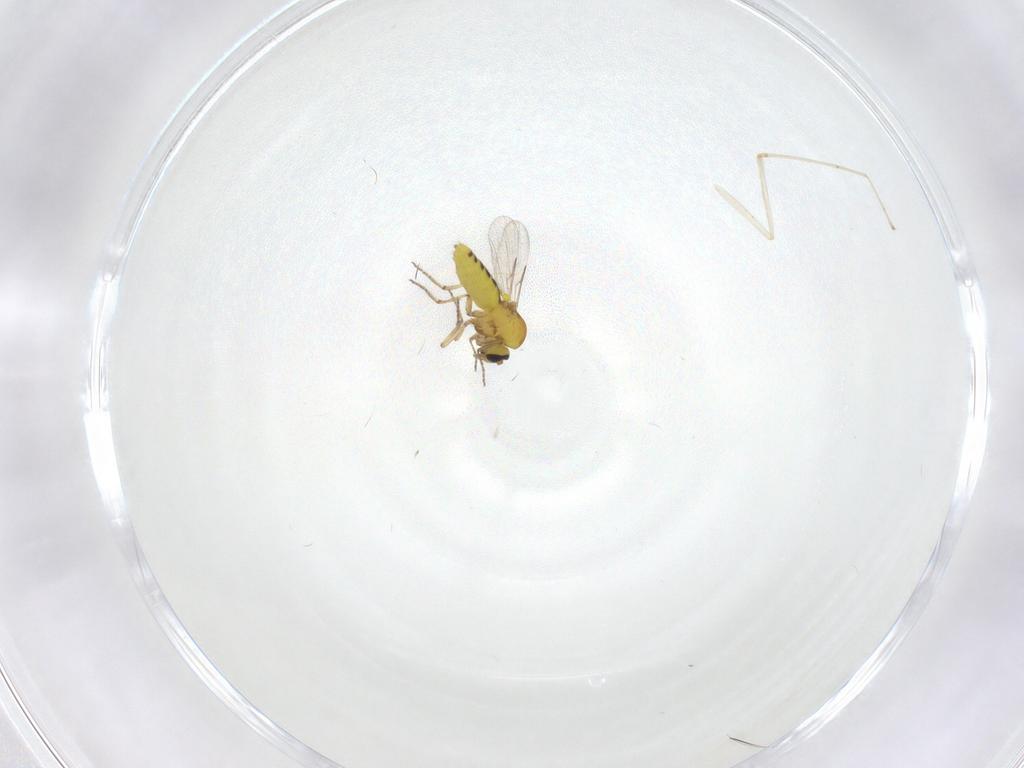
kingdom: Animalia
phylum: Arthropoda
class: Insecta
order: Diptera
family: Ceratopogonidae
